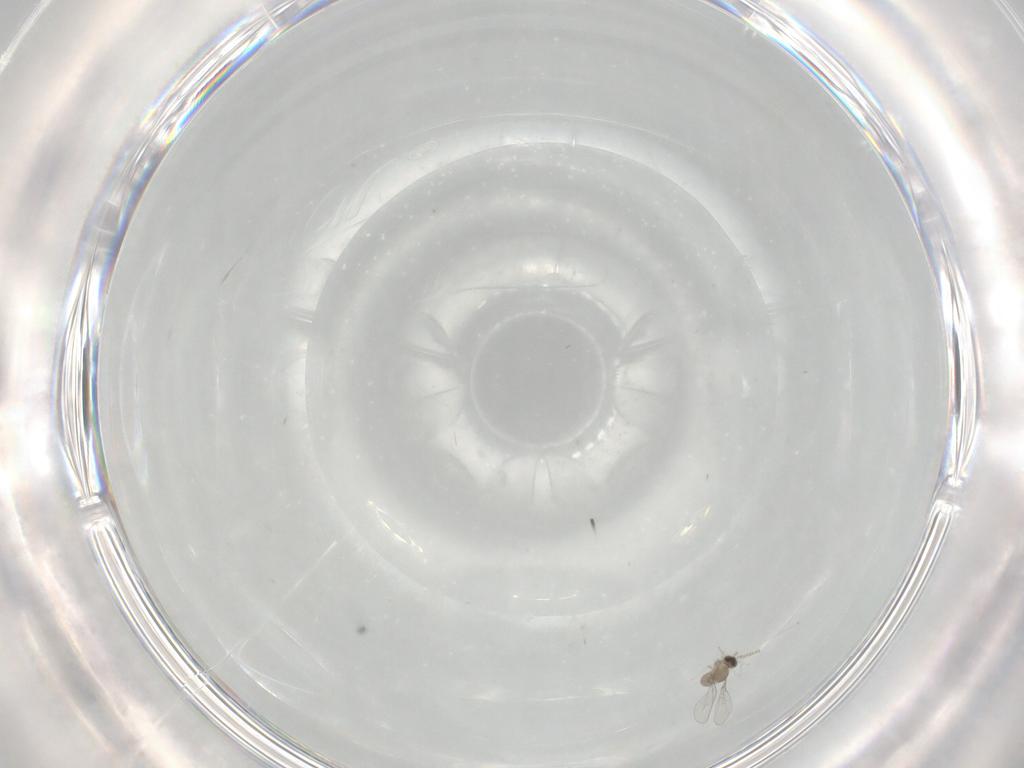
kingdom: Animalia
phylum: Arthropoda
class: Insecta
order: Diptera
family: Cecidomyiidae
